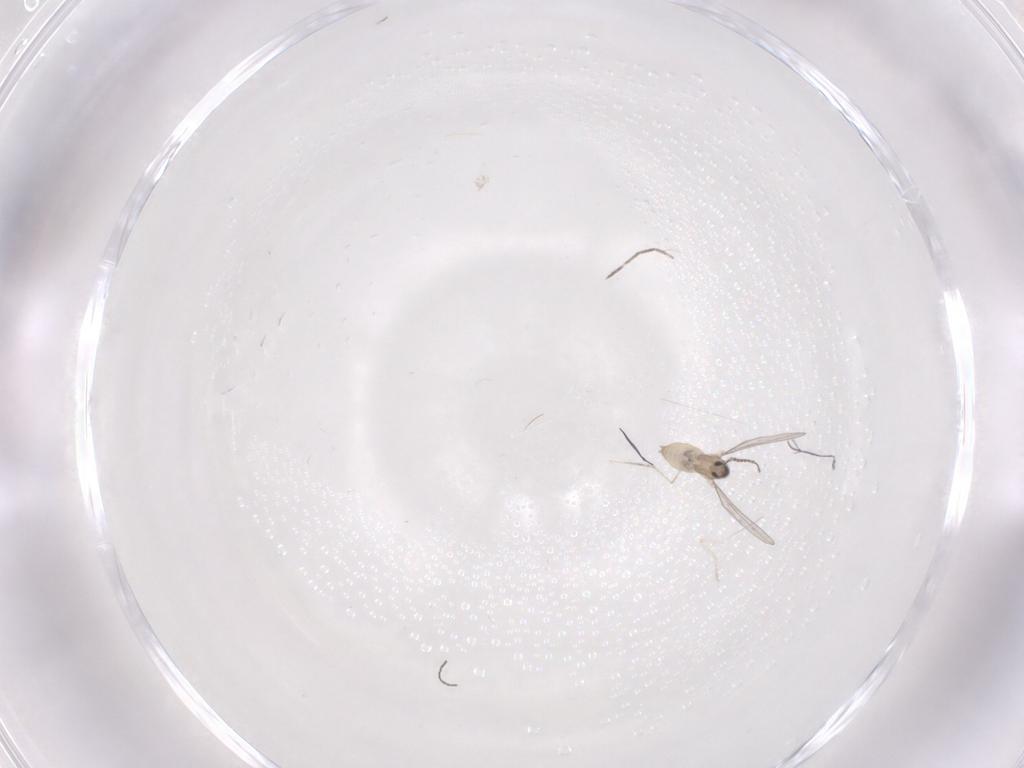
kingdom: Animalia
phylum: Arthropoda
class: Insecta
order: Diptera
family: Cecidomyiidae
